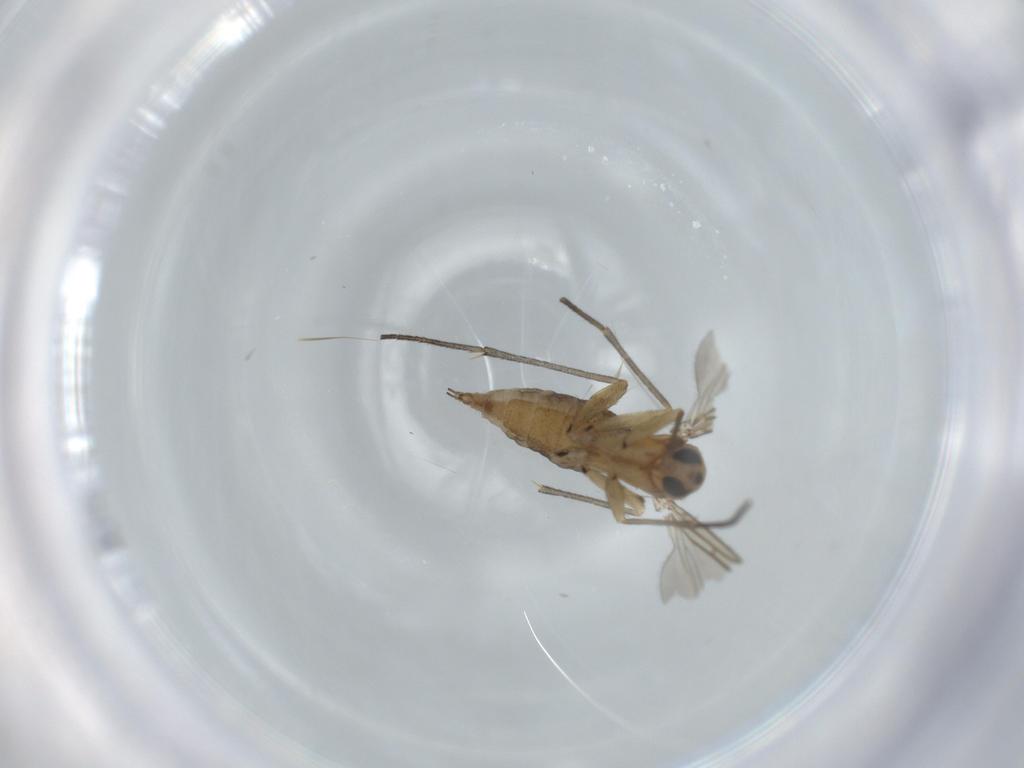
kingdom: Animalia
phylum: Arthropoda
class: Insecta
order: Diptera
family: Sciaridae
